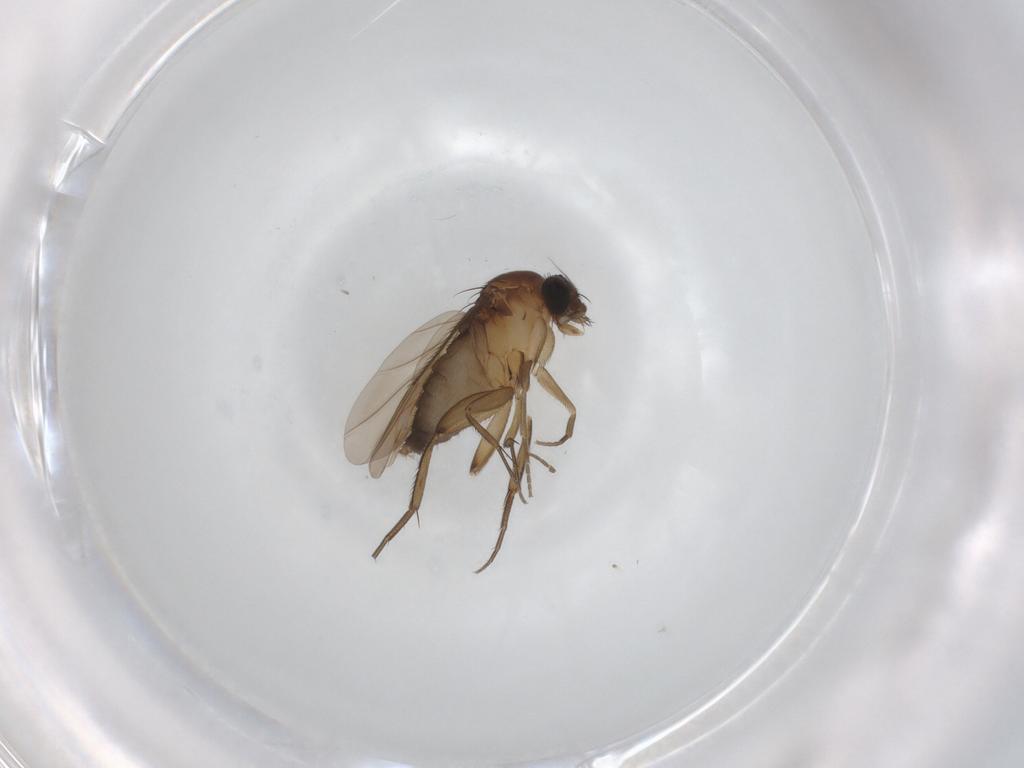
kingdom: Animalia
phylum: Arthropoda
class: Insecta
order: Diptera
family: Phoridae
